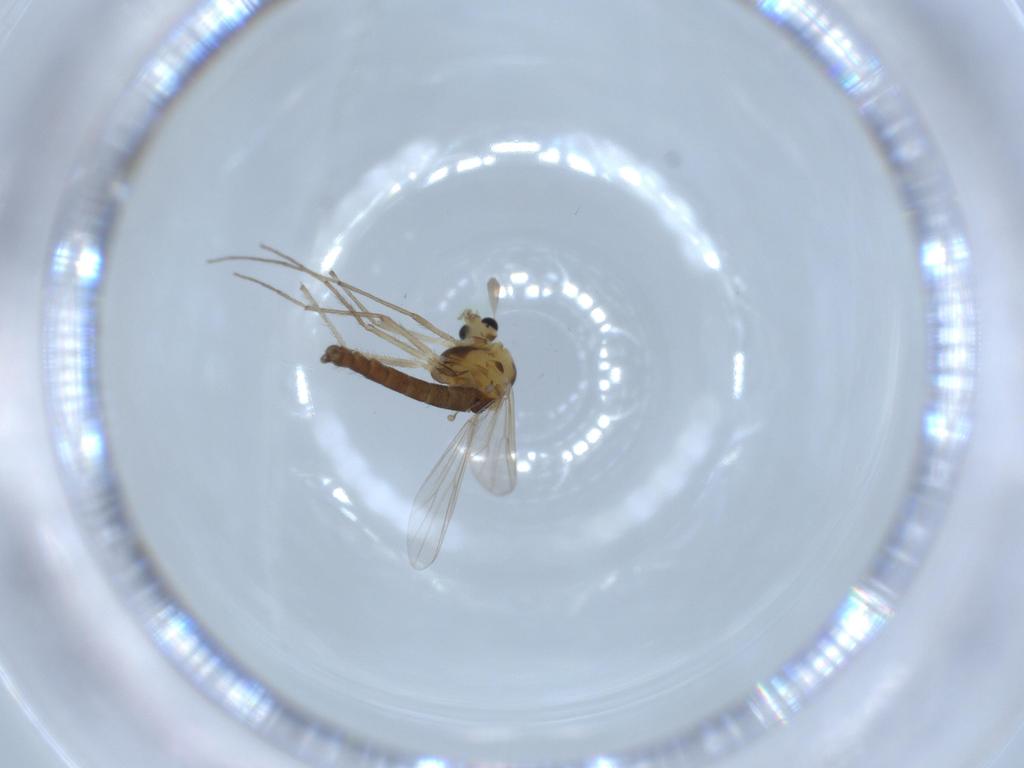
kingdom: Animalia
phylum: Arthropoda
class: Insecta
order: Diptera
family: Chironomidae
